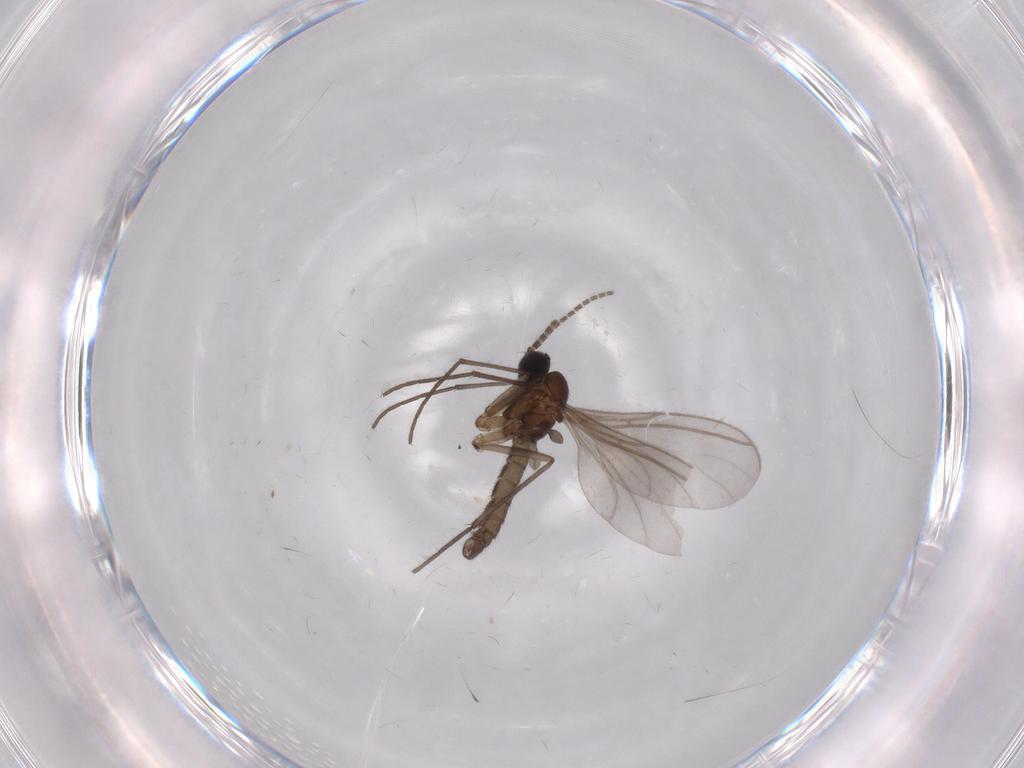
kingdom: Animalia
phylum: Arthropoda
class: Insecta
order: Diptera
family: Sciaridae
